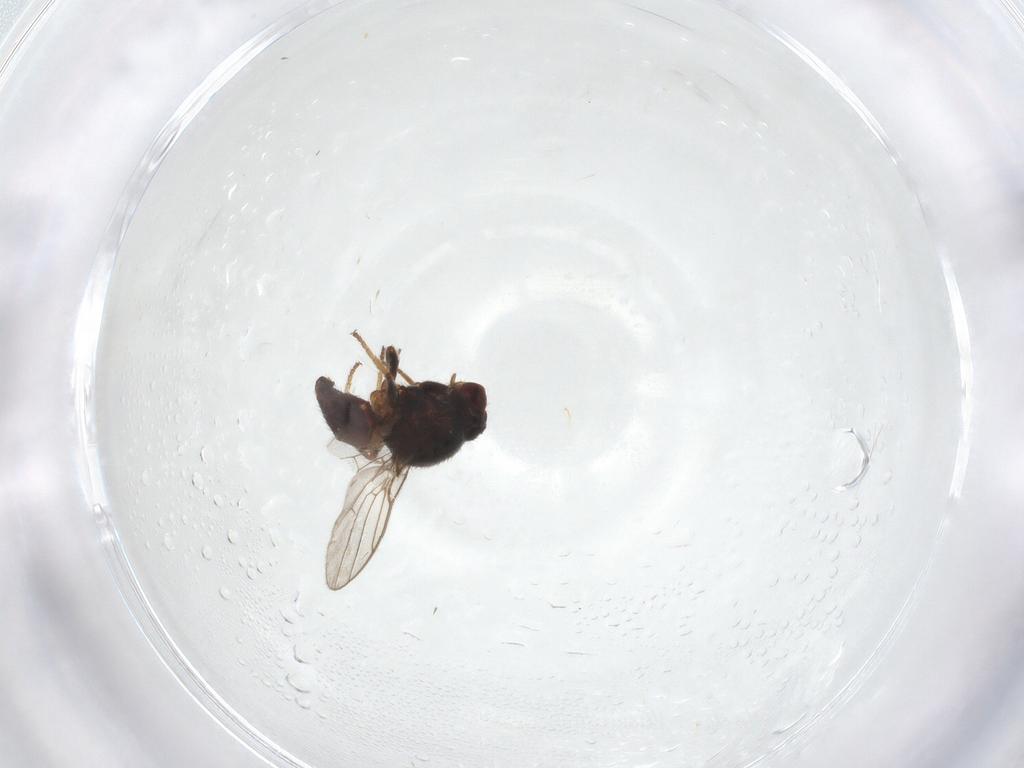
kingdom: Animalia
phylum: Arthropoda
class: Insecta
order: Diptera
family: Chloropidae
